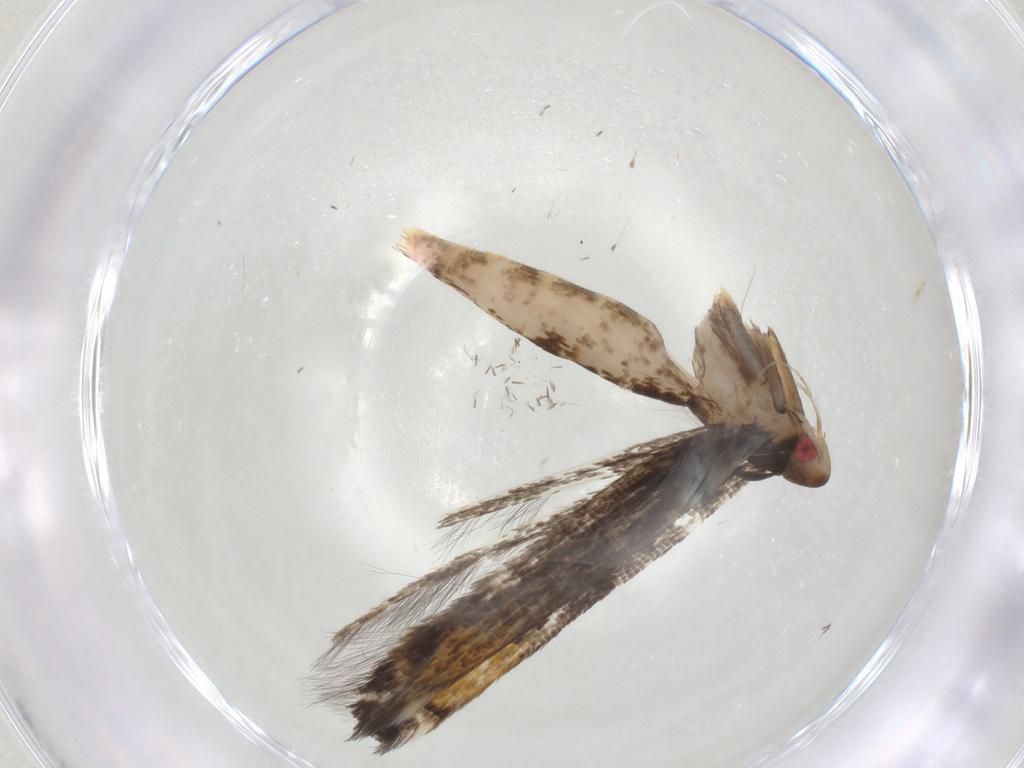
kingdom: Animalia
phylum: Arthropoda
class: Insecta
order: Lepidoptera
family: Cosmopterigidae
